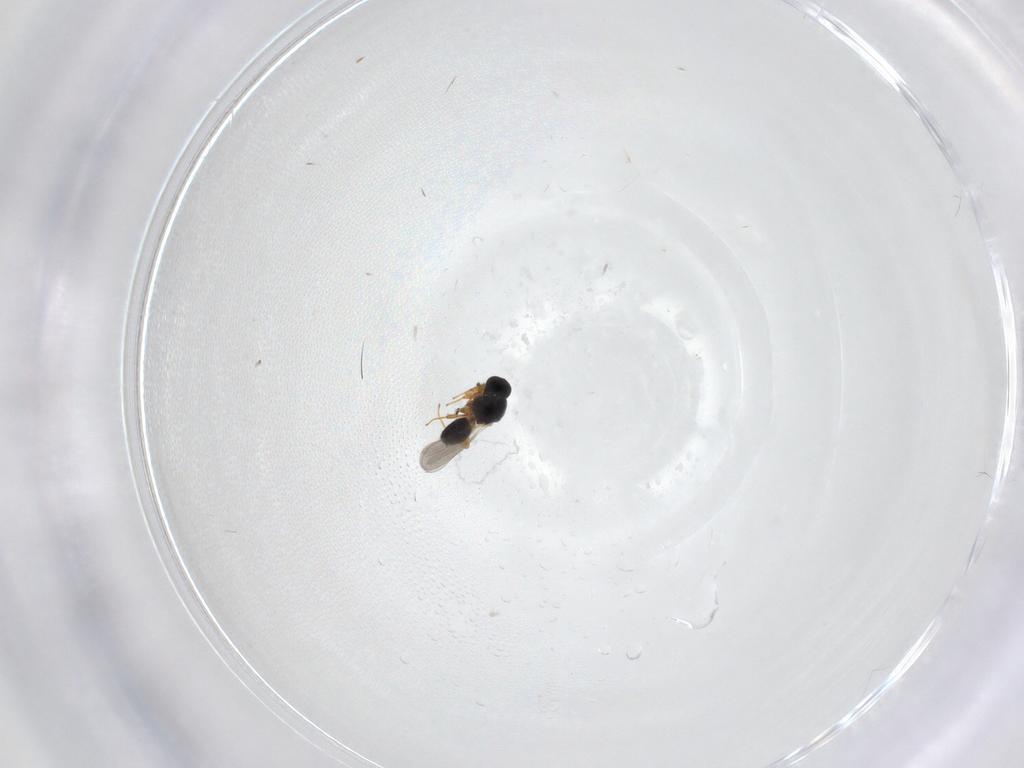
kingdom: Animalia
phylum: Arthropoda
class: Insecta
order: Hymenoptera
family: Platygastridae
